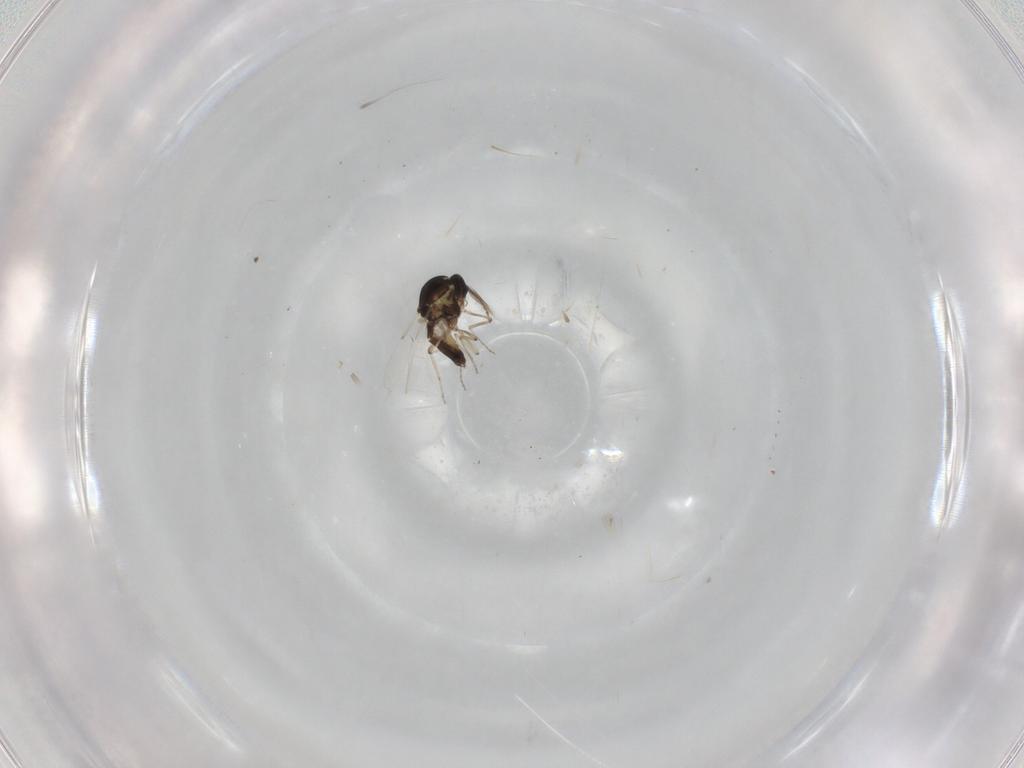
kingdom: Animalia
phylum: Arthropoda
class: Insecta
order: Diptera
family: Ceratopogonidae
